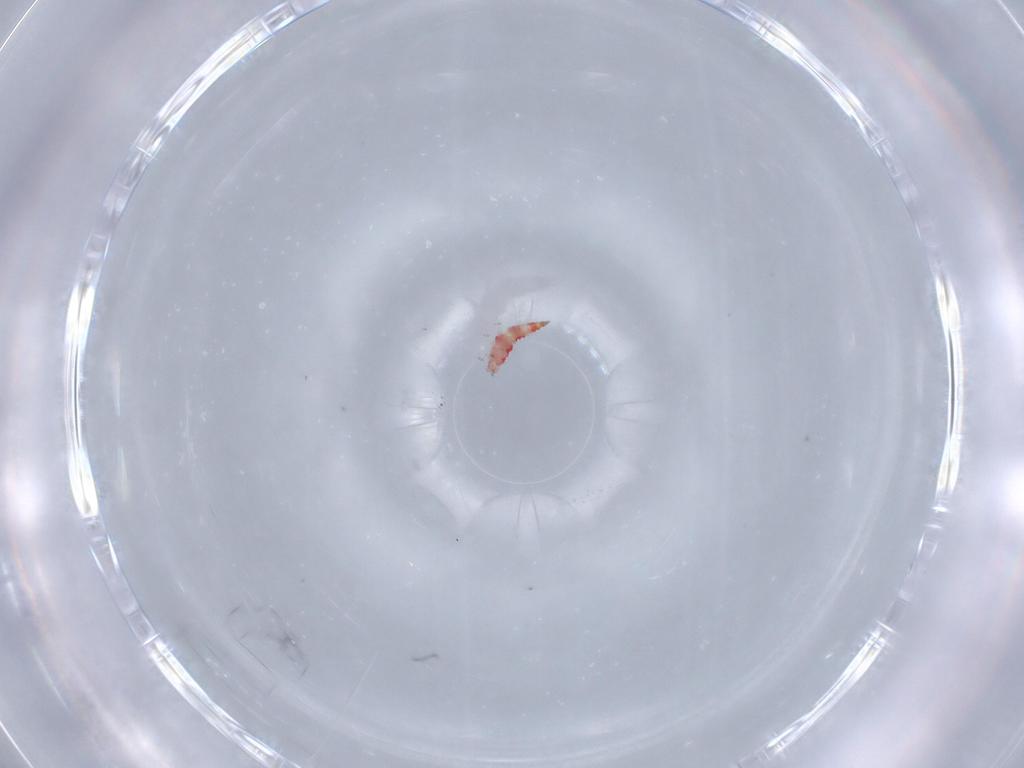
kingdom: Animalia
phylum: Arthropoda
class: Insecta
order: Thysanoptera
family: Phlaeothripidae
